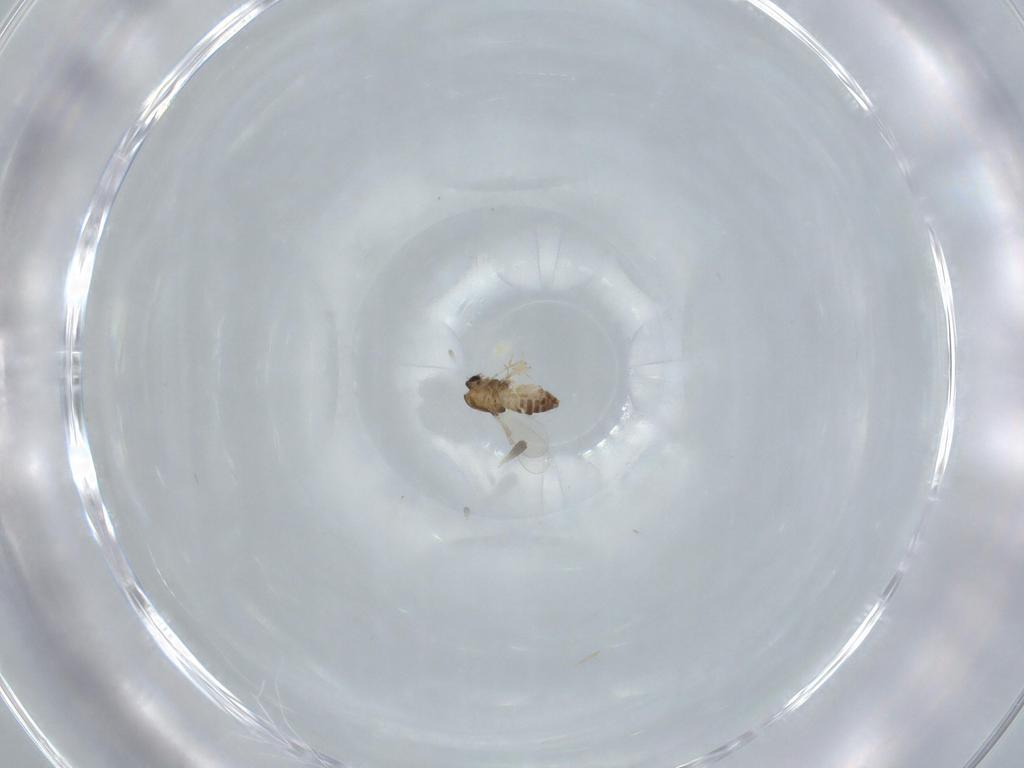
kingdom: Animalia
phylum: Arthropoda
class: Insecta
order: Diptera
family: Chironomidae
